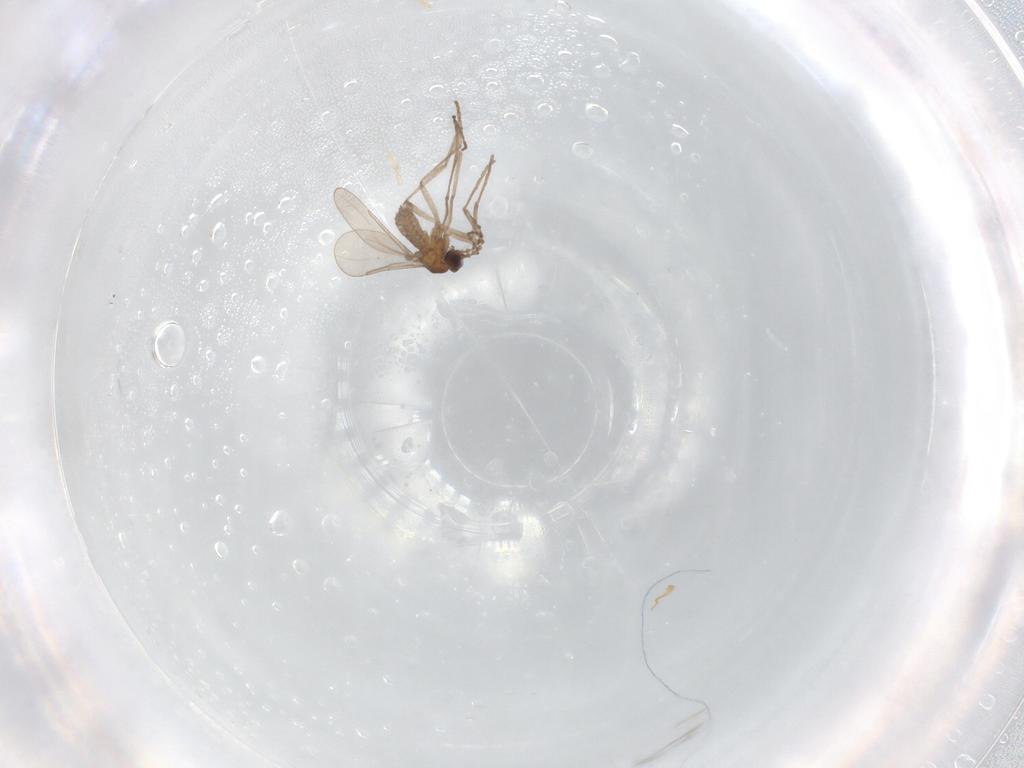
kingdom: Animalia
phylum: Arthropoda
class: Insecta
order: Diptera
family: Cecidomyiidae
